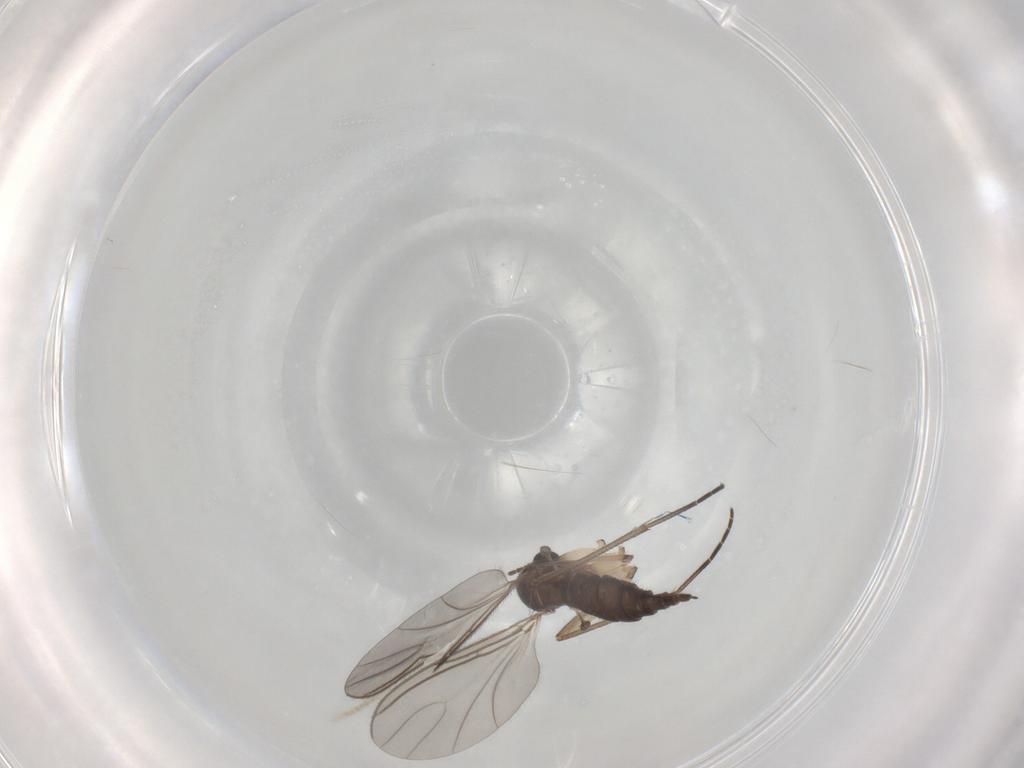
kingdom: Animalia
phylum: Arthropoda
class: Insecta
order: Diptera
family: Sciaridae
